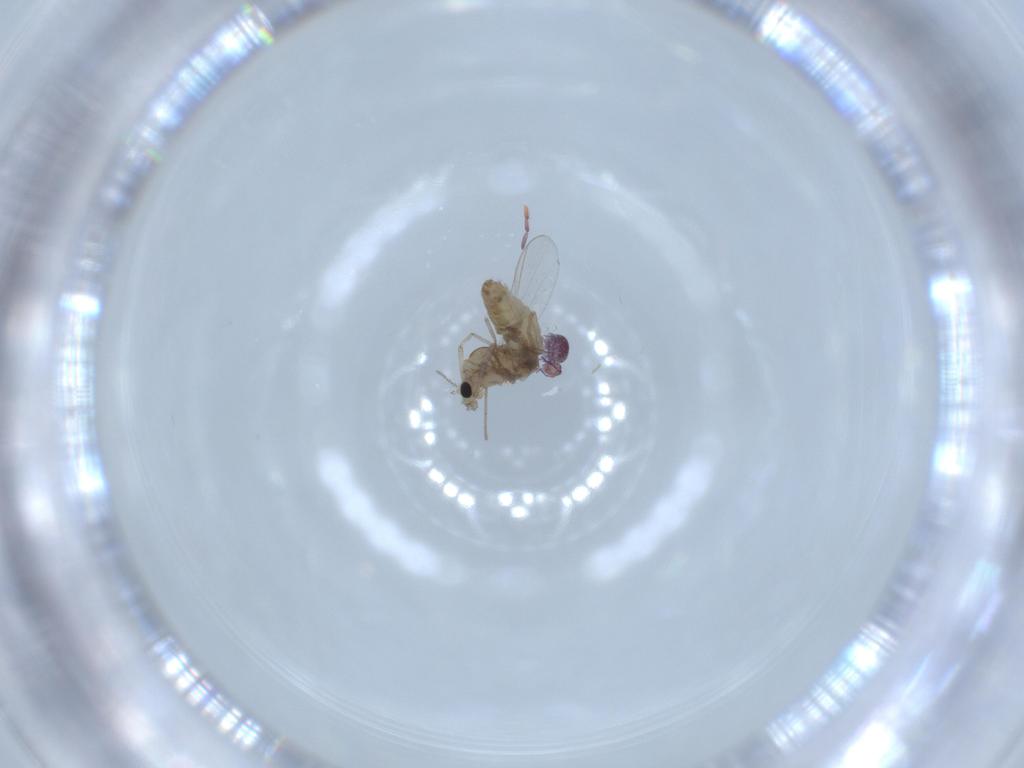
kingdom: Animalia
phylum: Arthropoda
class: Insecta
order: Diptera
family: Chironomidae
